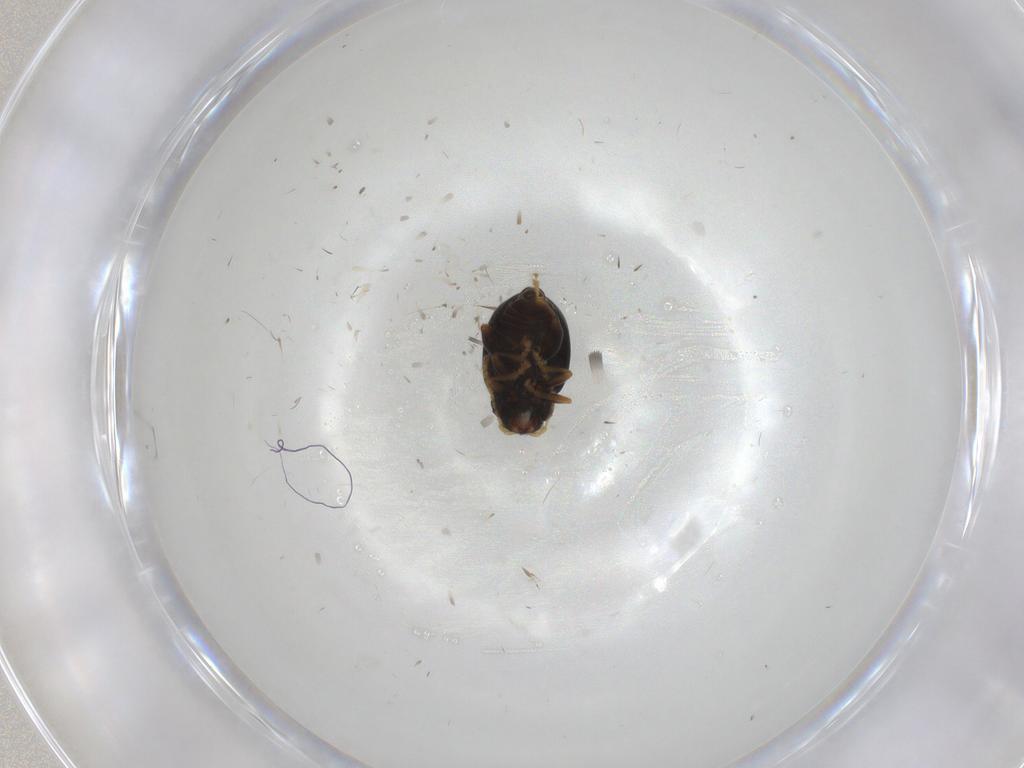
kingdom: Animalia
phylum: Arthropoda
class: Insecta
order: Coleoptera
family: Chrysomelidae
